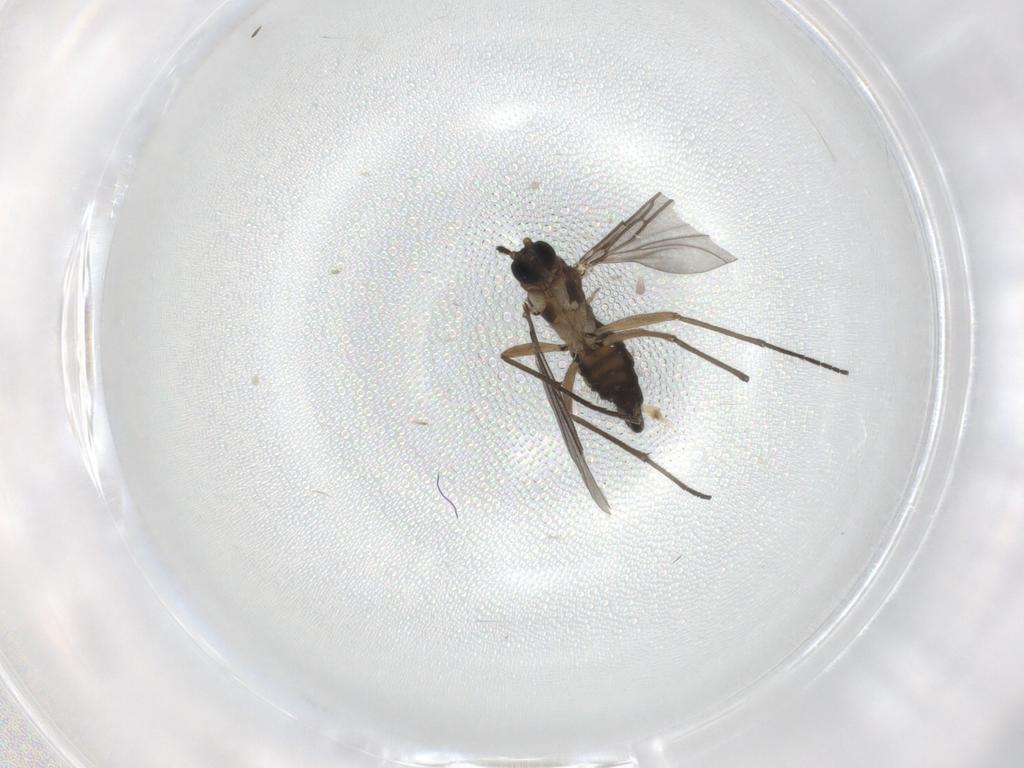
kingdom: Animalia
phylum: Arthropoda
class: Insecta
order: Diptera
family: Sciaridae
